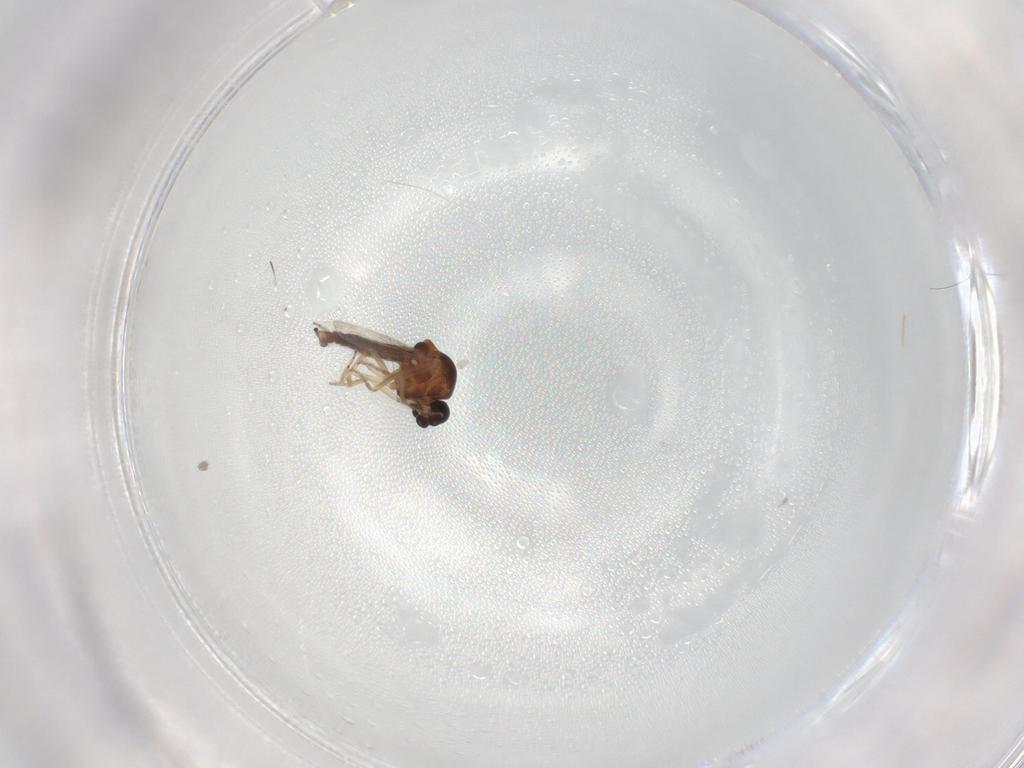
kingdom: Animalia
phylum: Arthropoda
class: Insecta
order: Diptera
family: Ceratopogonidae
